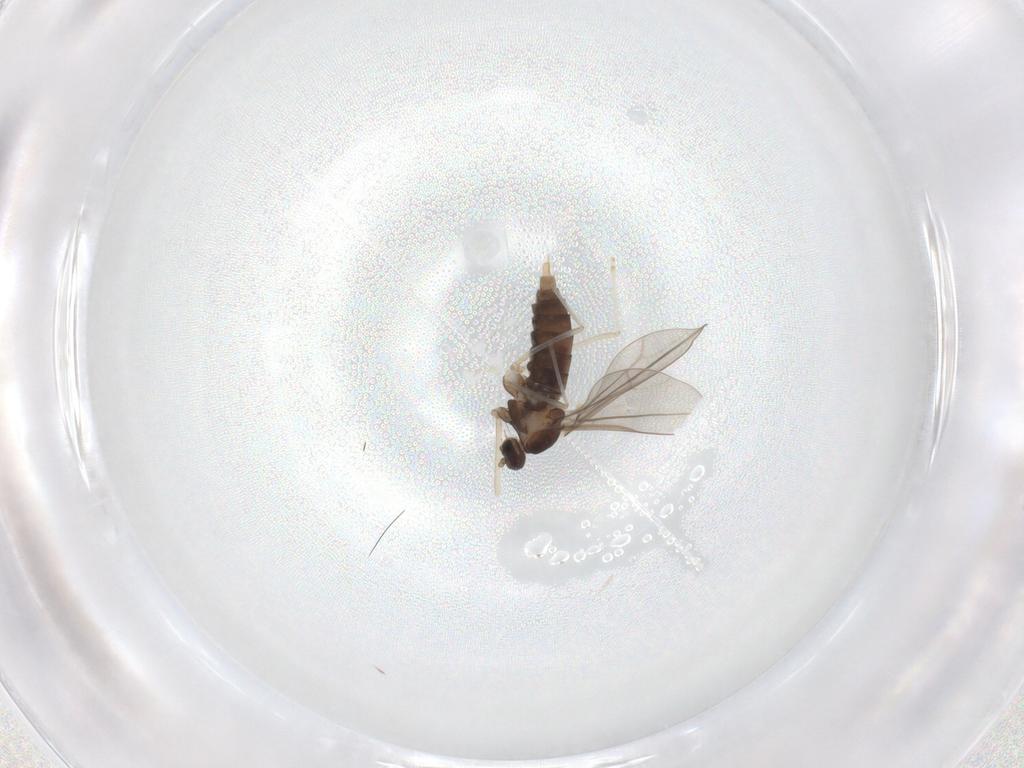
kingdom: Animalia
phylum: Arthropoda
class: Insecta
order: Diptera
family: Cecidomyiidae
